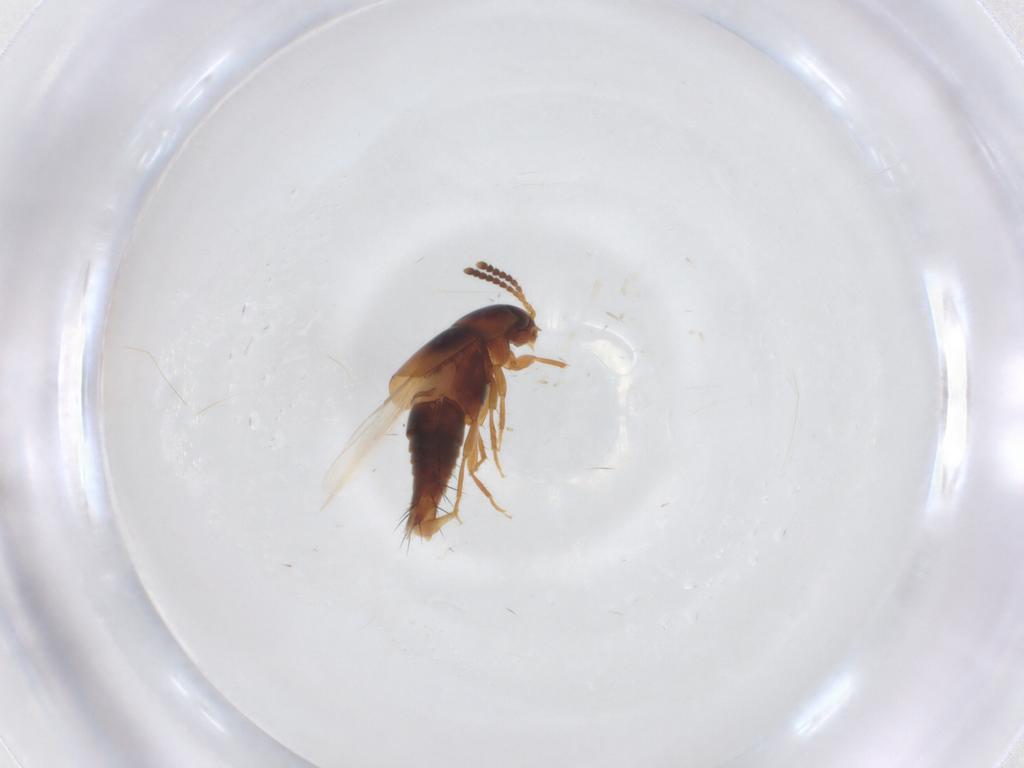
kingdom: Animalia
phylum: Arthropoda
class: Insecta
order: Coleoptera
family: Staphylinidae
